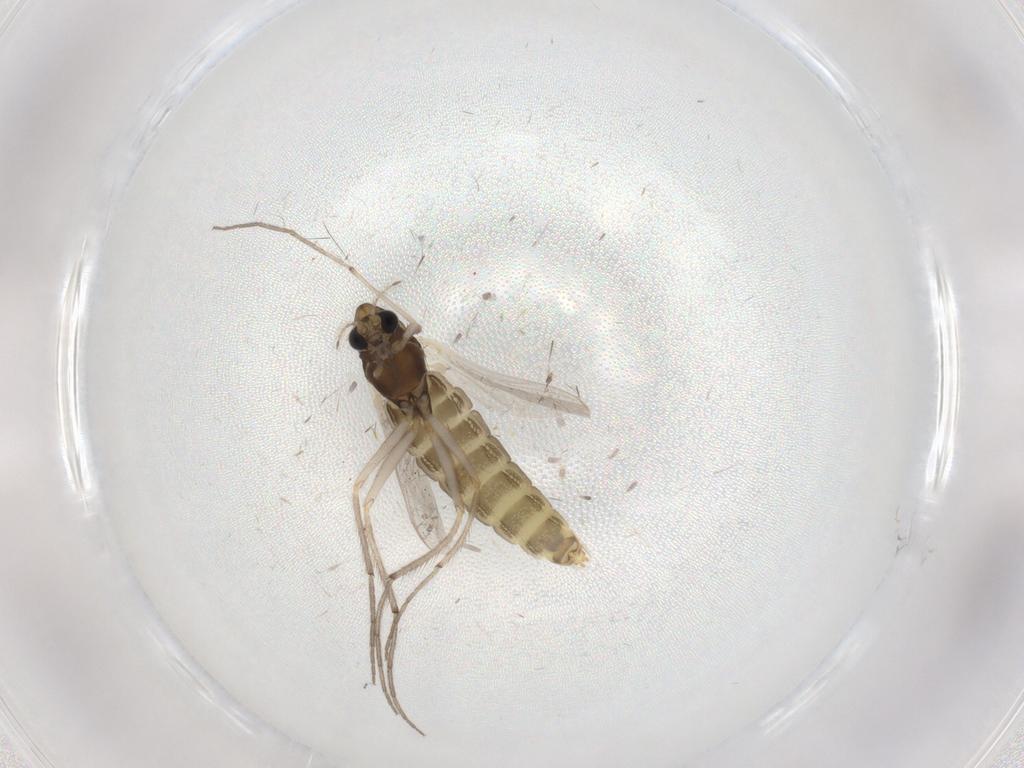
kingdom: Animalia
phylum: Arthropoda
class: Insecta
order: Diptera
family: Chironomidae
